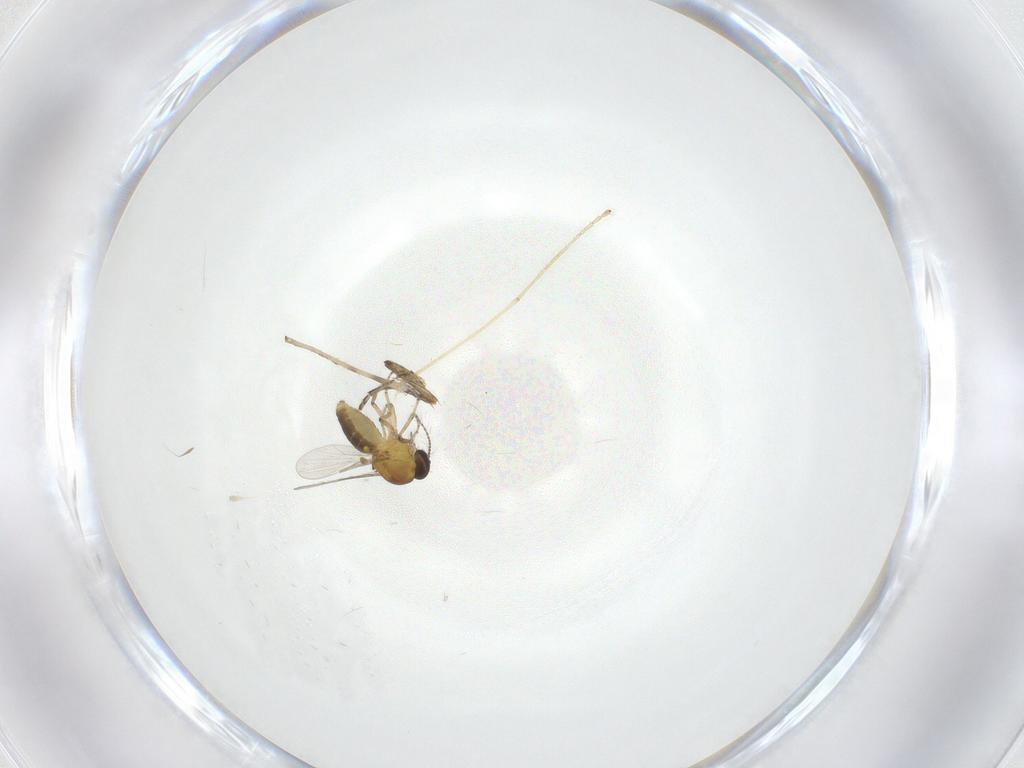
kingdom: Animalia
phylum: Arthropoda
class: Insecta
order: Diptera
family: Ceratopogonidae
